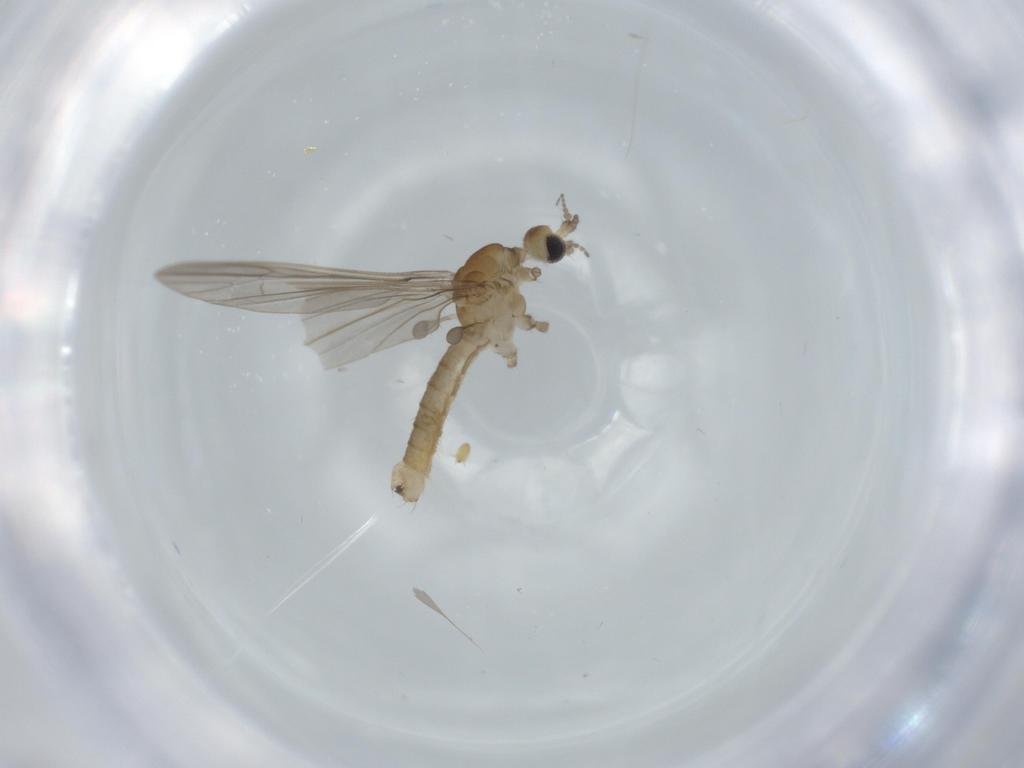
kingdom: Animalia
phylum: Arthropoda
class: Insecta
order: Diptera
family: Limoniidae
